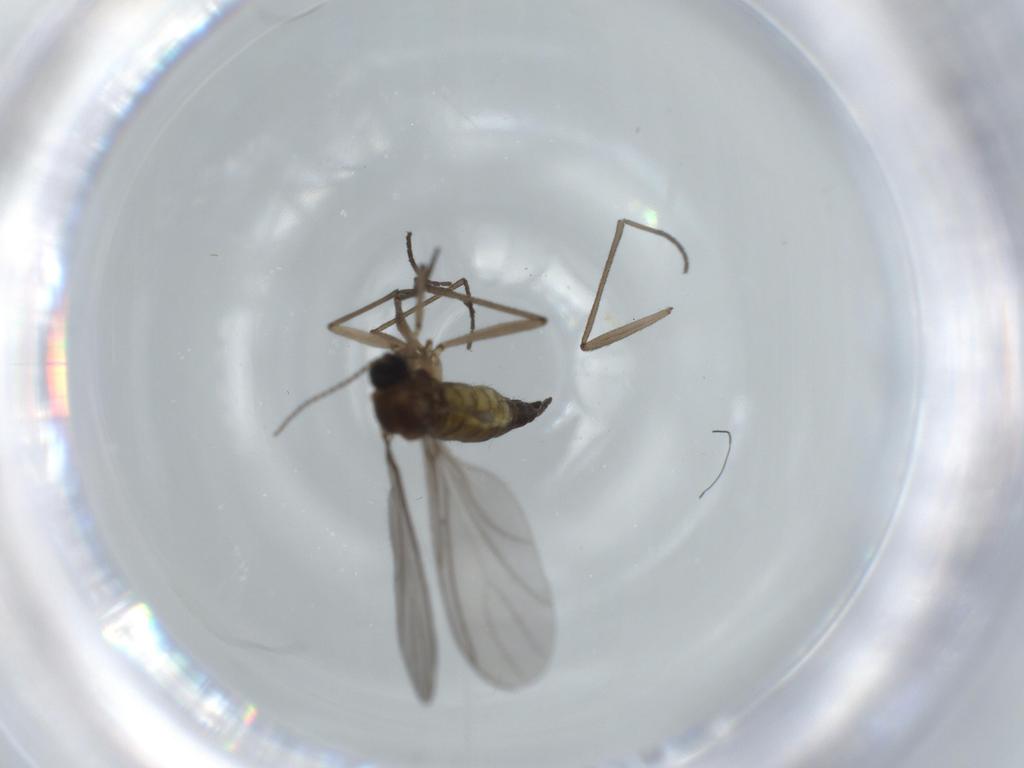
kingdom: Animalia
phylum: Arthropoda
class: Insecta
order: Diptera
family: Sciaridae
